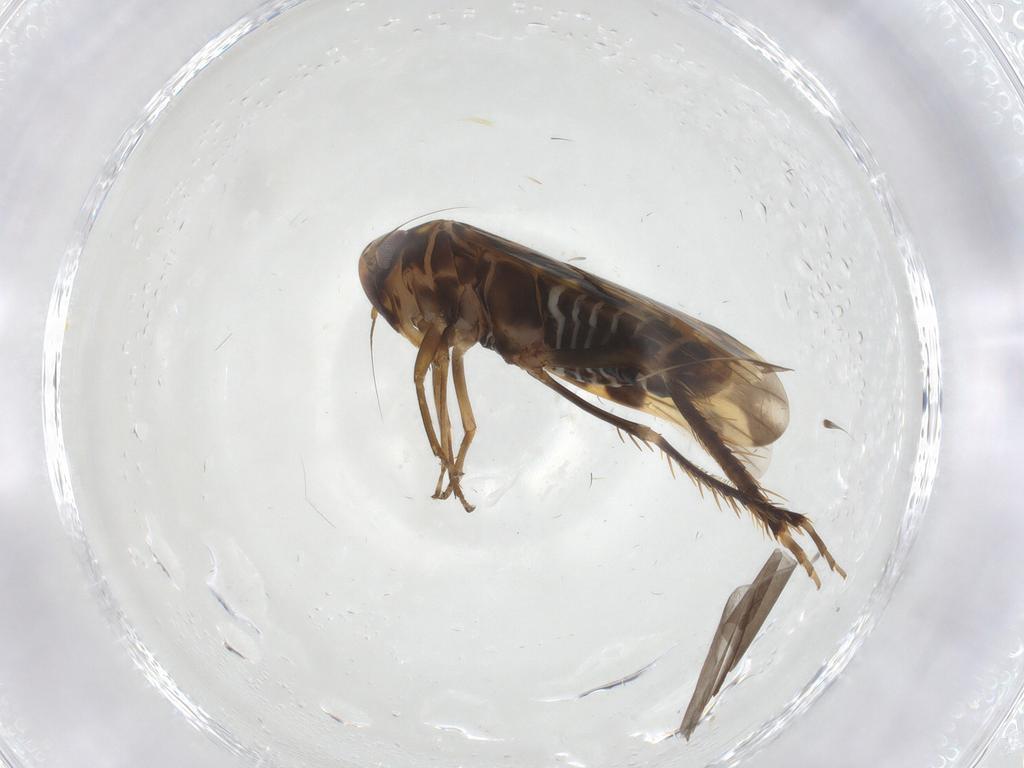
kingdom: Animalia
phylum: Arthropoda
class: Insecta
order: Hemiptera
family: Cicadellidae
